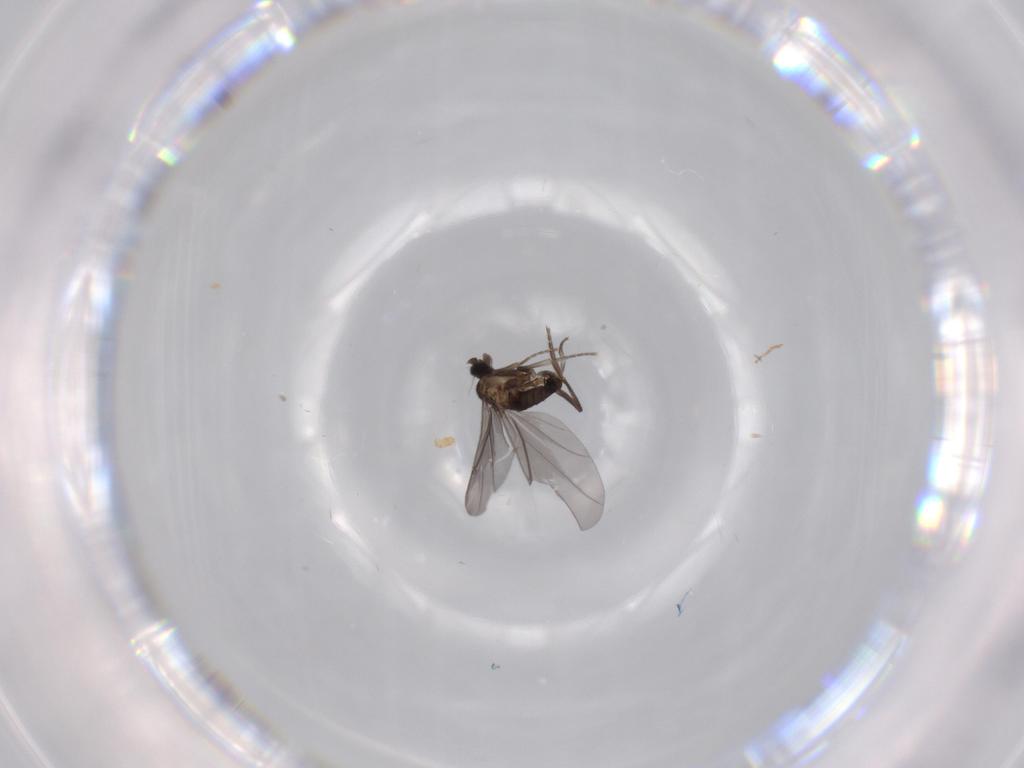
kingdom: Animalia
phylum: Arthropoda
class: Insecta
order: Diptera
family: Phoridae
